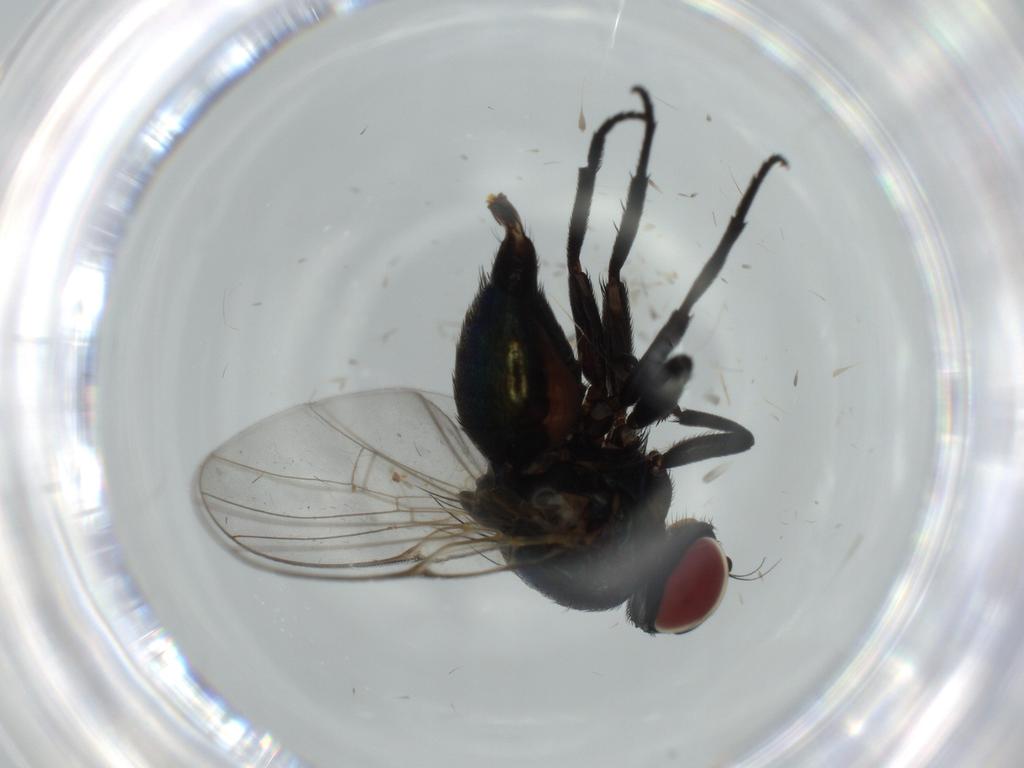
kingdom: Animalia
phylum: Arthropoda
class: Insecta
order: Diptera
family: Agromyzidae
